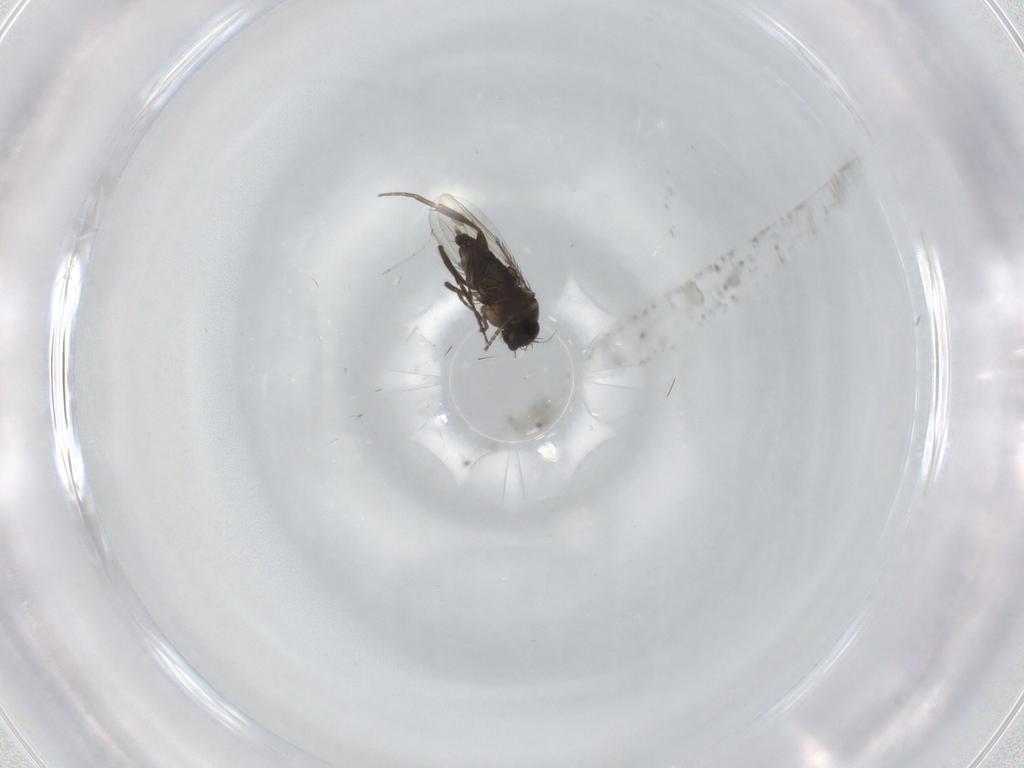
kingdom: Animalia
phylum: Arthropoda
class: Insecta
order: Diptera
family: Phoridae
